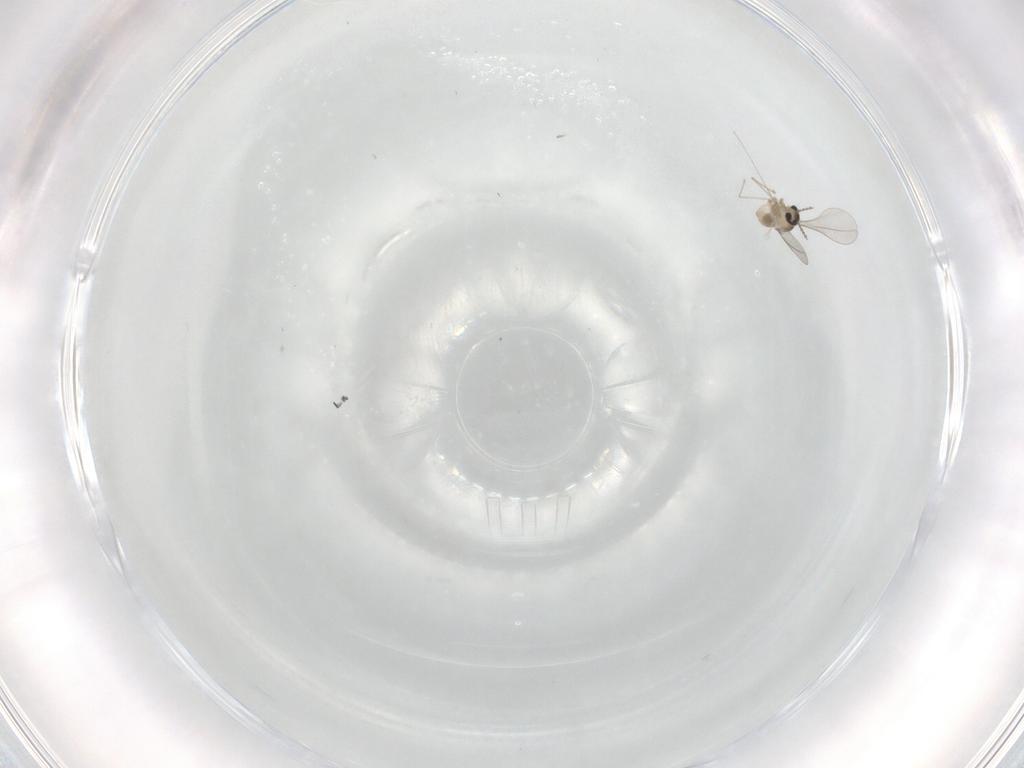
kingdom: Animalia
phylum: Arthropoda
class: Insecta
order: Diptera
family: Cecidomyiidae
